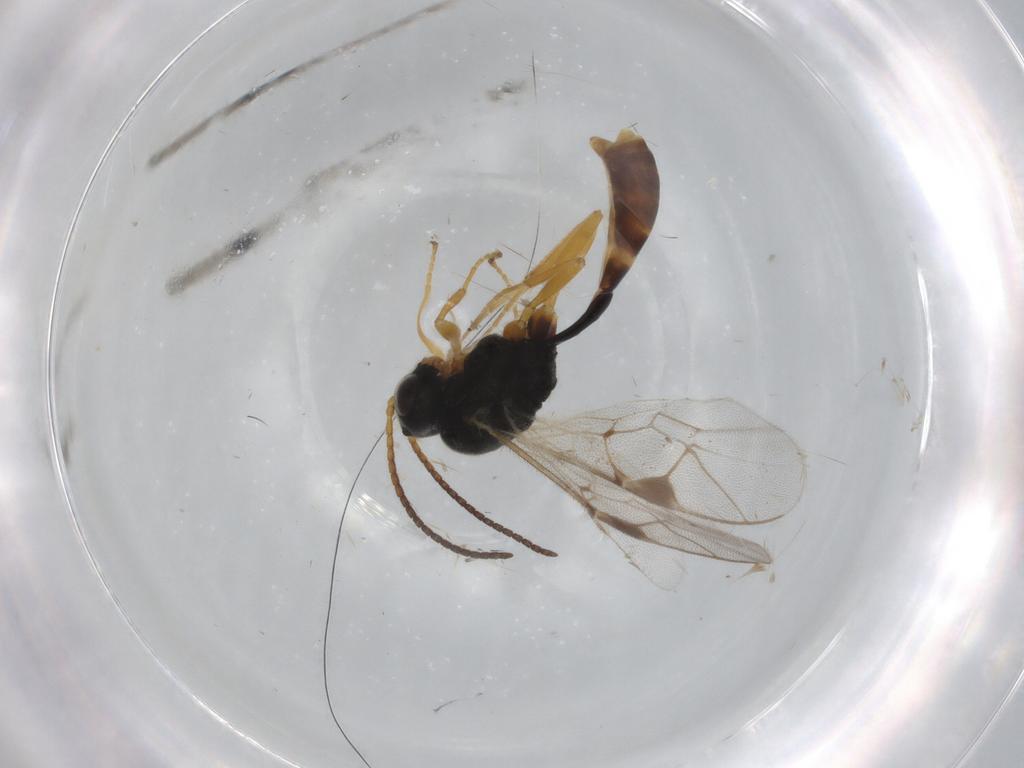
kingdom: Animalia
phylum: Arthropoda
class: Insecta
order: Hymenoptera
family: Ichneumonidae
